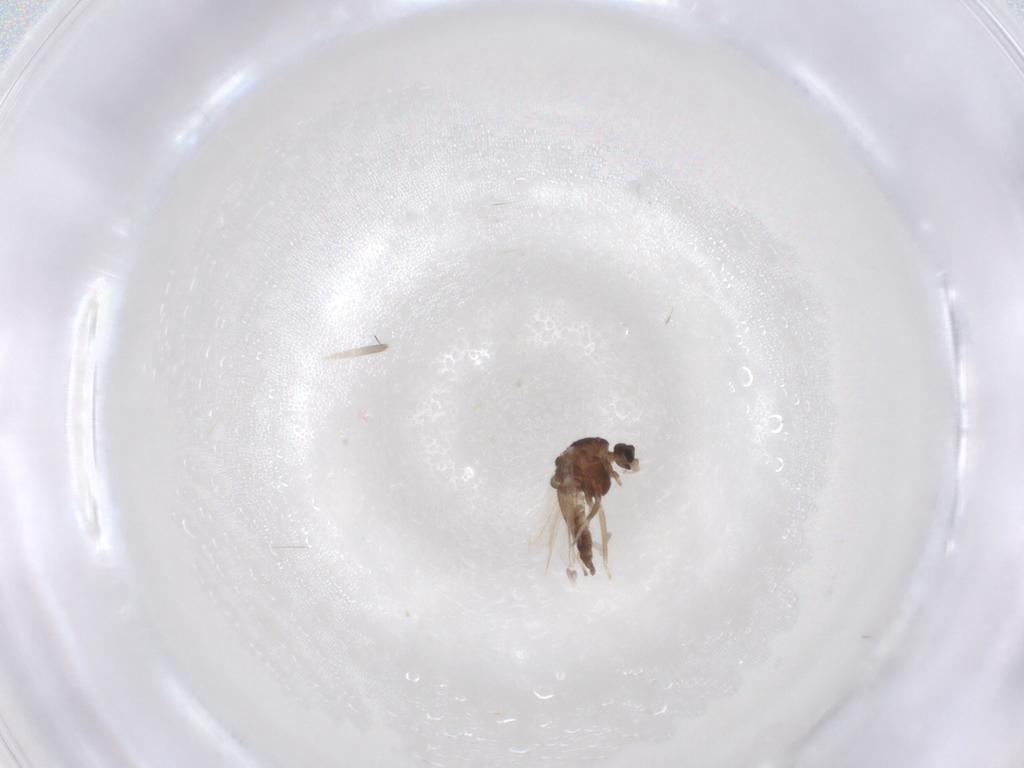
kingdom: Animalia
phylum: Arthropoda
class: Insecta
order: Diptera
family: Chironomidae
